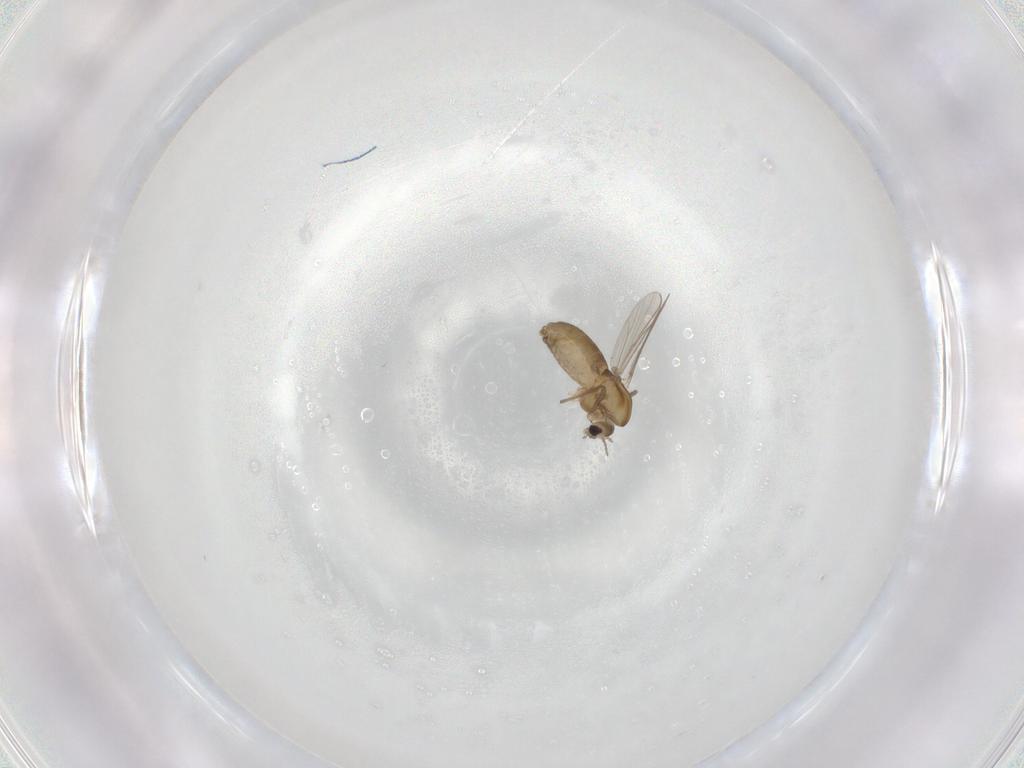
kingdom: Animalia
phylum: Arthropoda
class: Insecta
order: Diptera
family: Chironomidae
